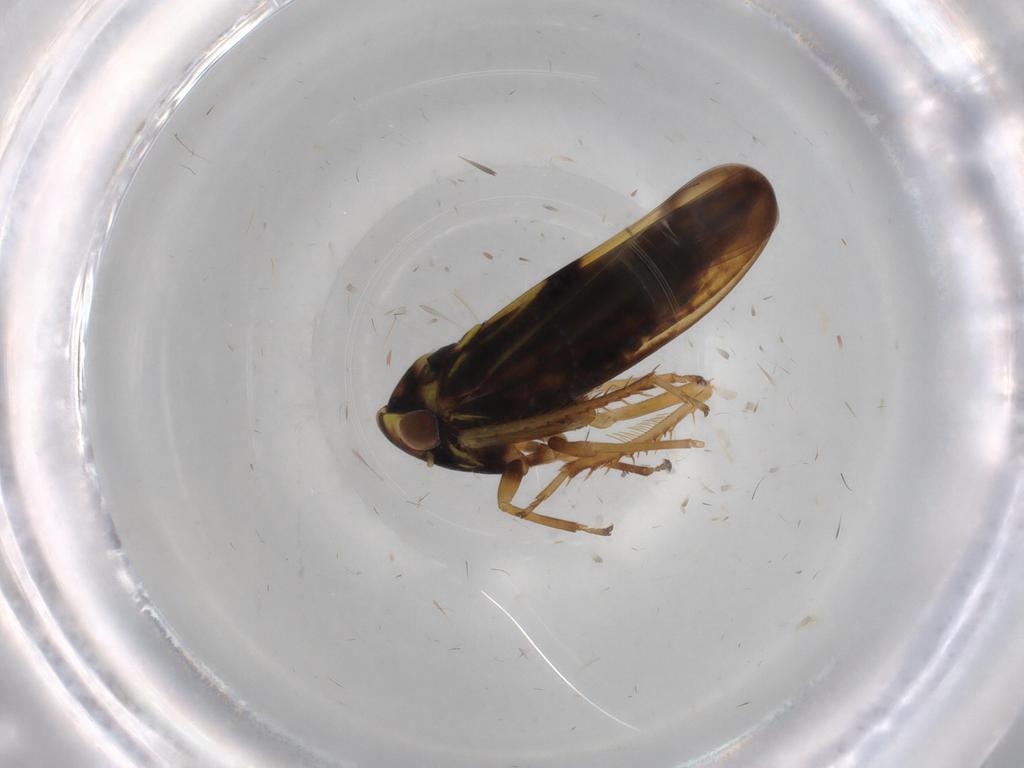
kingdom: Animalia
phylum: Arthropoda
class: Insecta
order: Hemiptera
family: Cicadellidae
